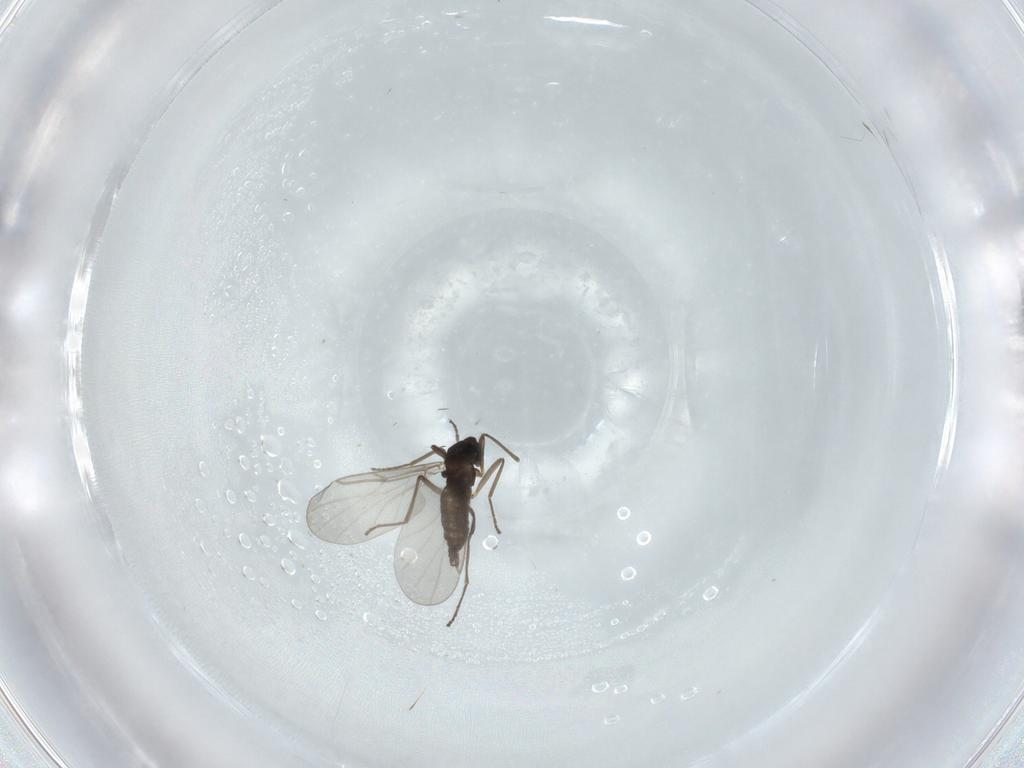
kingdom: Animalia
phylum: Arthropoda
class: Insecta
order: Diptera
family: Cecidomyiidae
